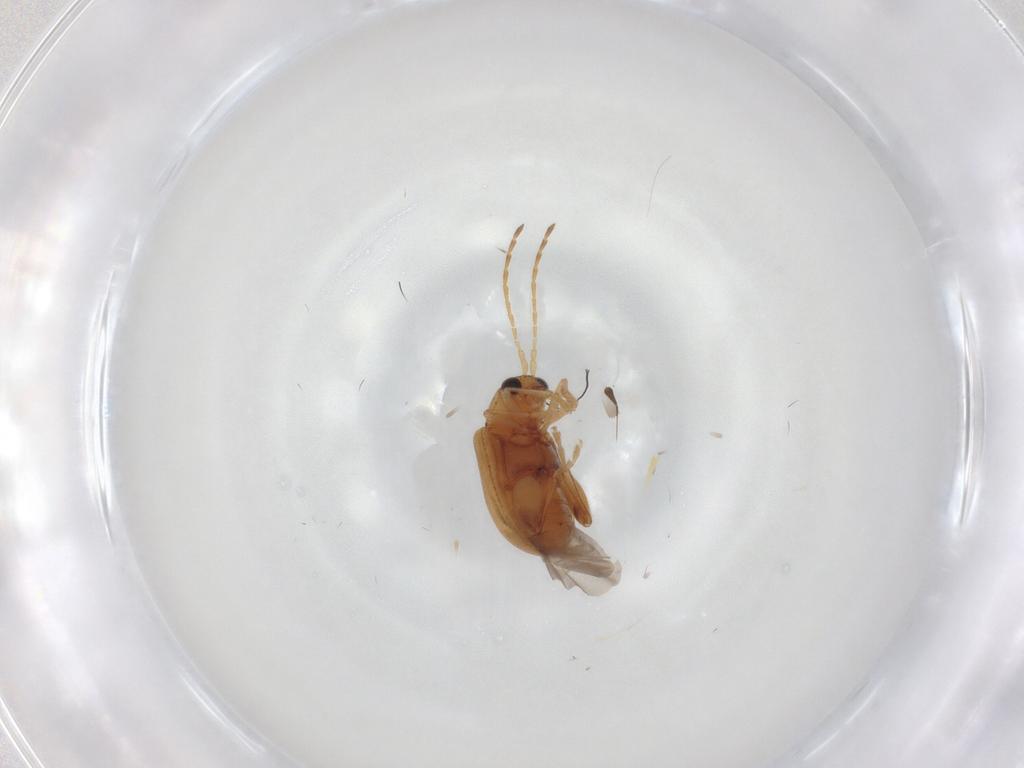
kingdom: Animalia
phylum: Arthropoda
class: Insecta
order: Coleoptera
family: Chrysomelidae
